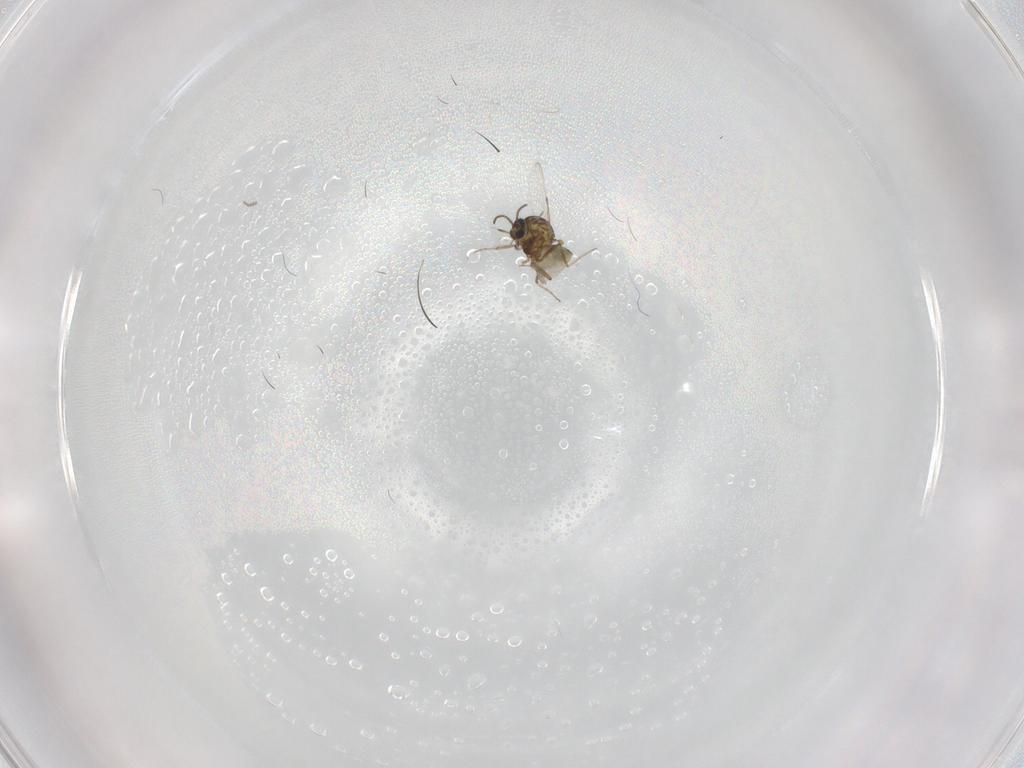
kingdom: Animalia
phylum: Arthropoda
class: Insecta
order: Diptera
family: Ceratopogonidae
